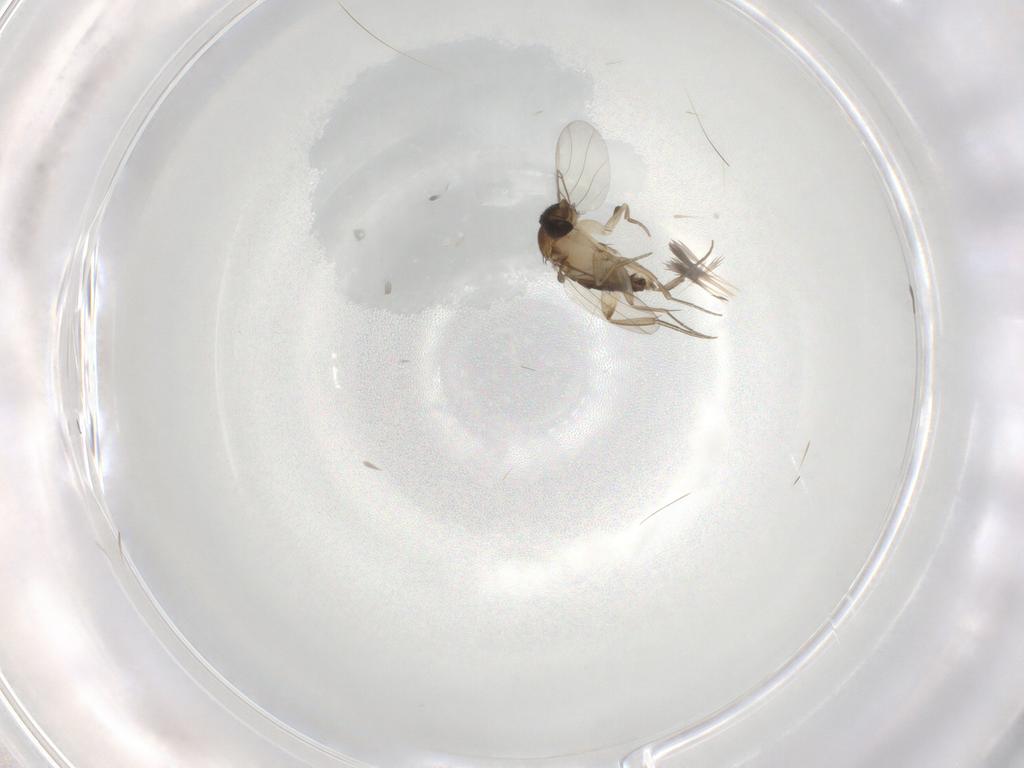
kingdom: Animalia
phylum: Arthropoda
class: Insecta
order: Diptera
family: Phoridae
